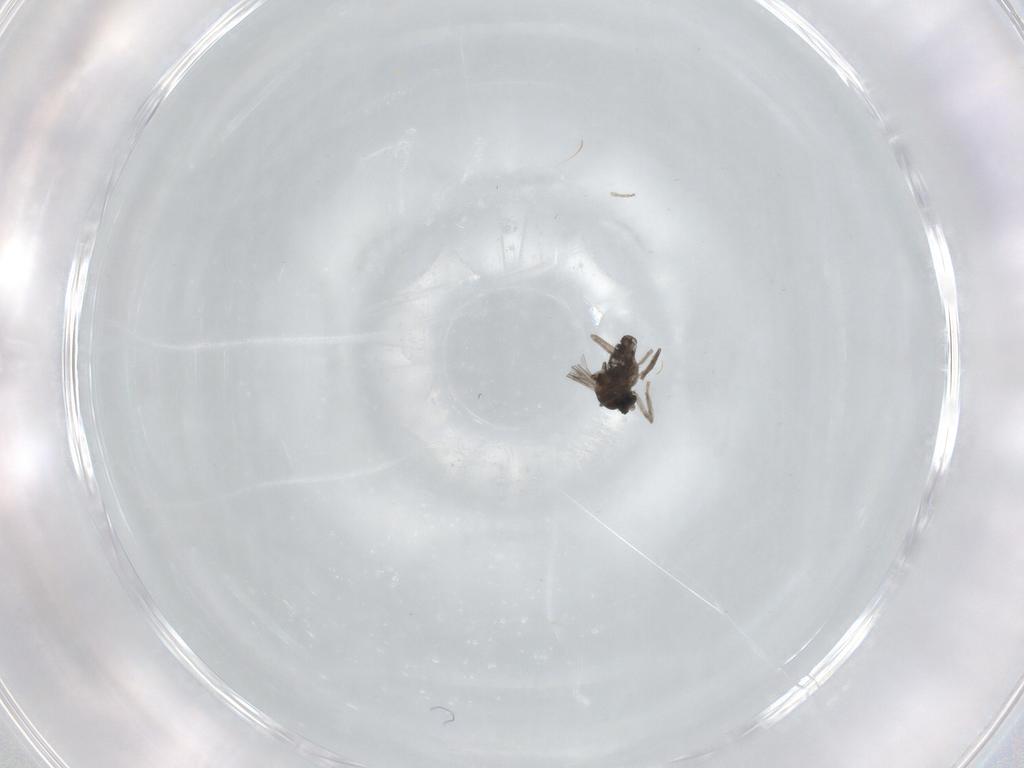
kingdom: Animalia
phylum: Arthropoda
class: Insecta
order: Diptera
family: Cecidomyiidae
